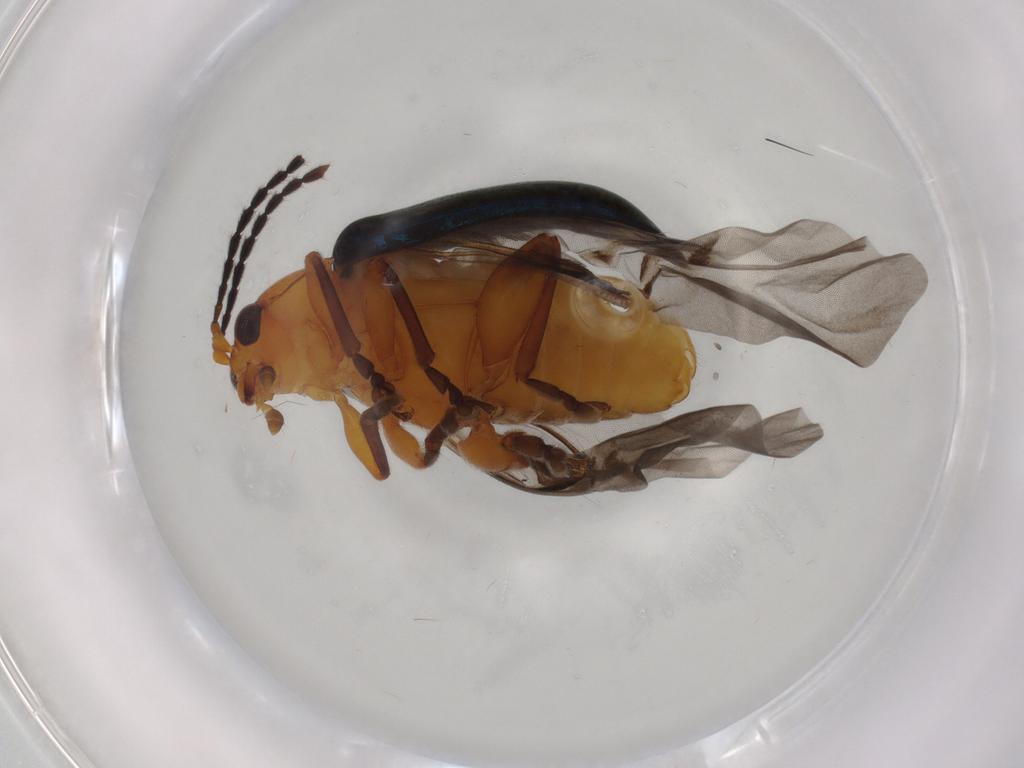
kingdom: Animalia
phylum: Arthropoda
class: Insecta
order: Coleoptera
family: Chrysomelidae
